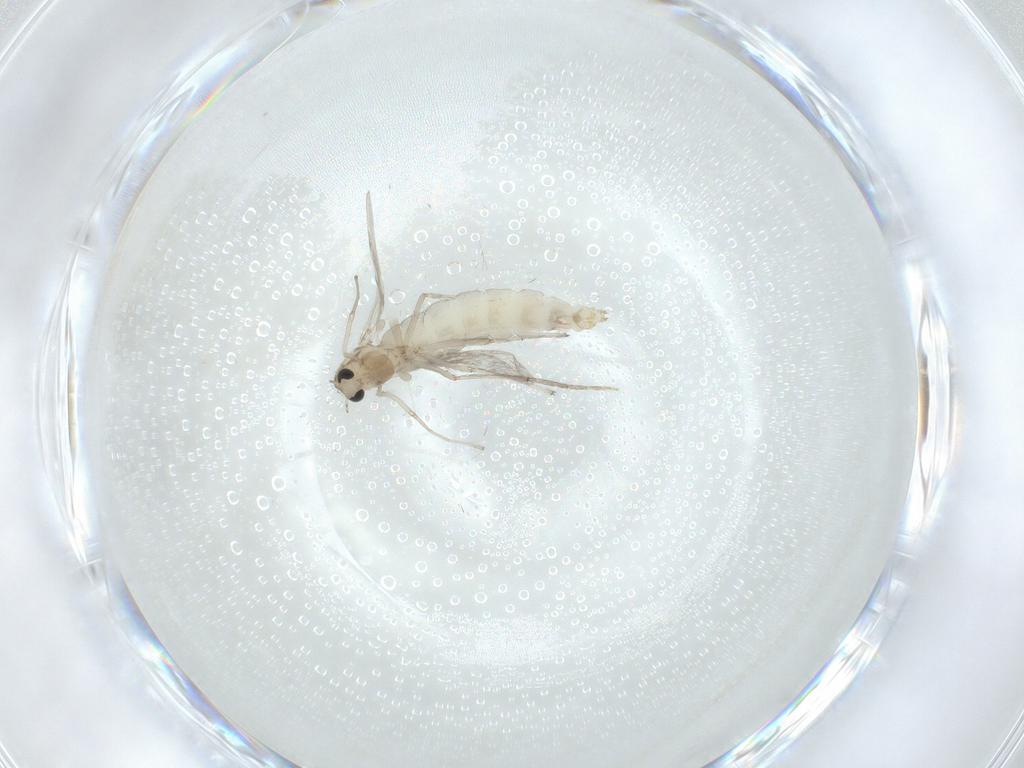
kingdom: Animalia
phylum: Arthropoda
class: Insecta
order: Diptera
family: Chironomidae
